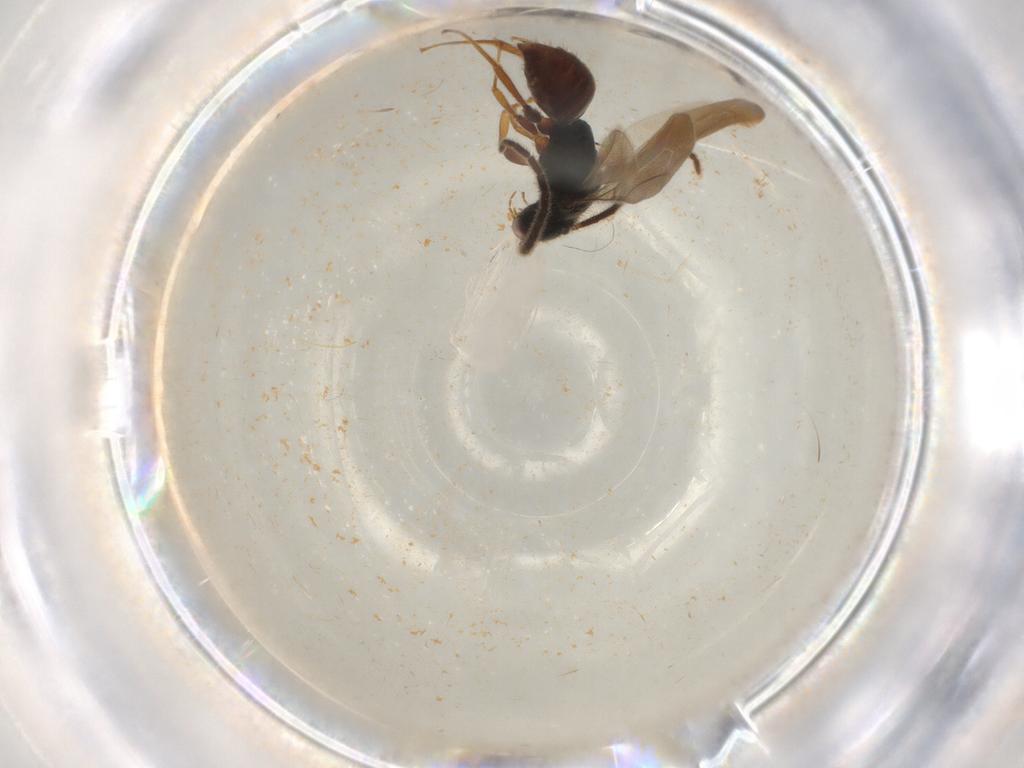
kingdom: Animalia
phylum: Arthropoda
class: Insecta
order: Hymenoptera
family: Bethylidae
